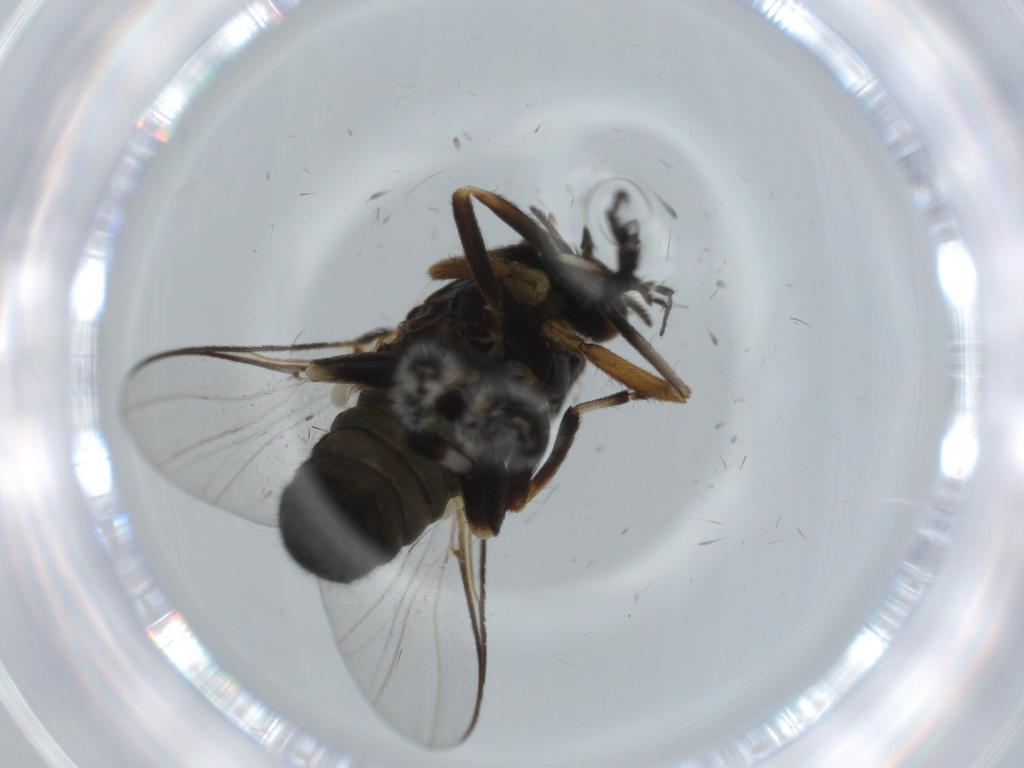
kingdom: Animalia
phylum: Arthropoda
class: Insecta
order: Diptera
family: Milichiidae
